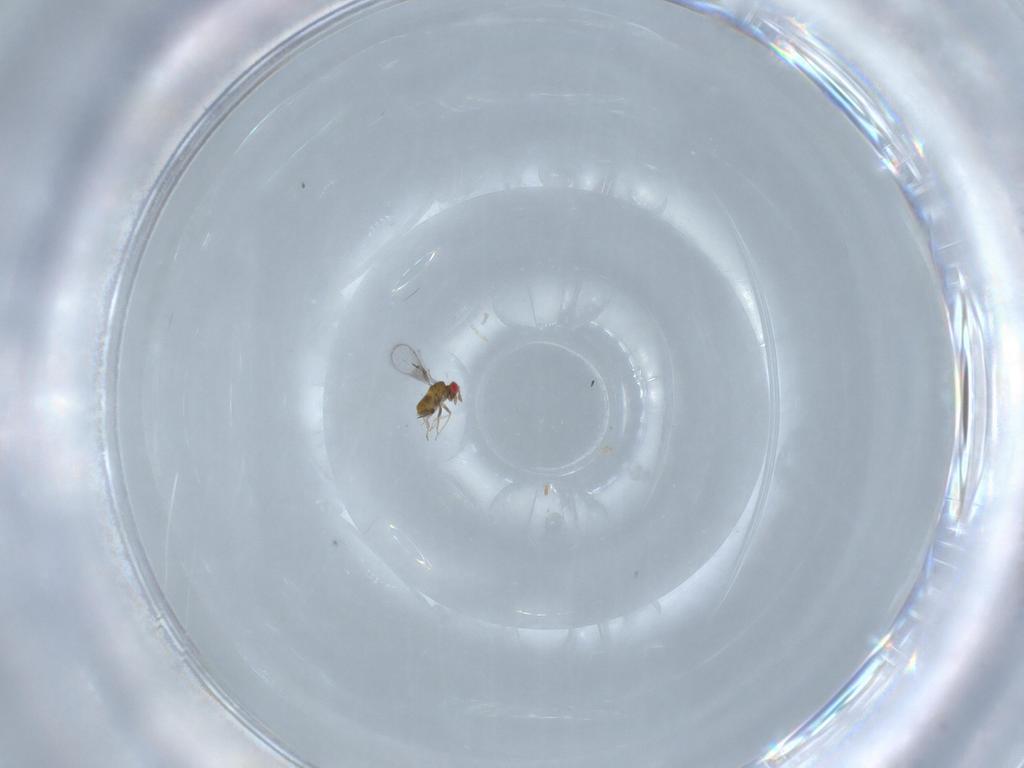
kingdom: Animalia
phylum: Arthropoda
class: Insecta
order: Hymenoptera
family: Trichogrammatidae
